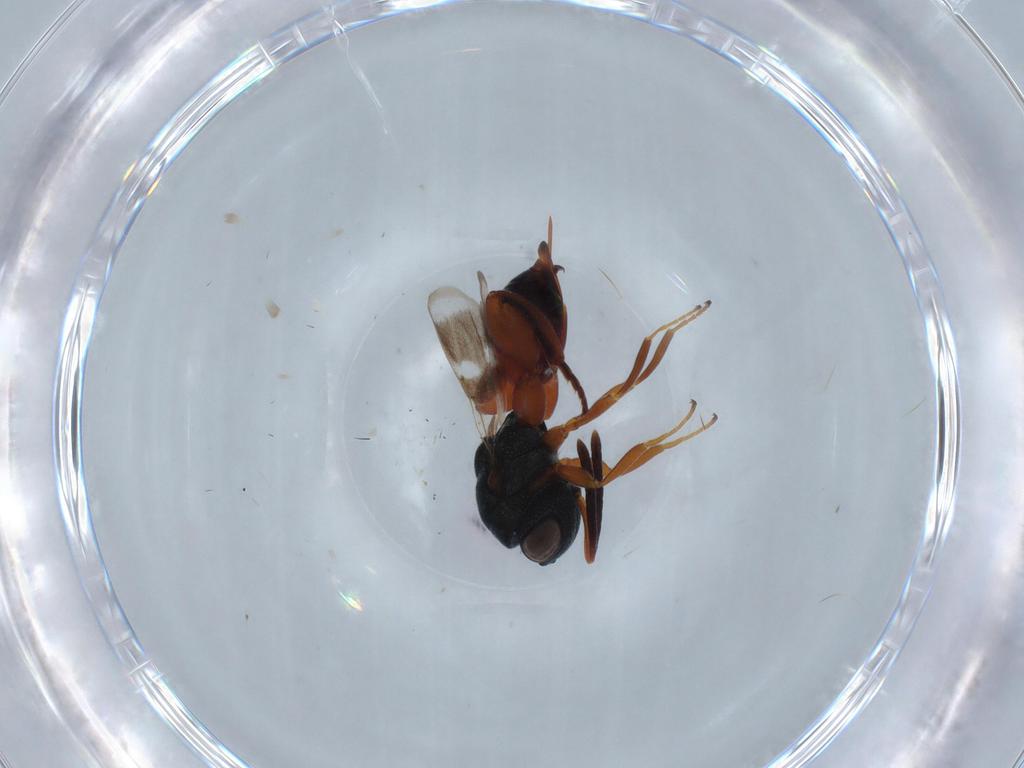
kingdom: Animalia
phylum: Arthropoda
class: Insecta
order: Hymenoptera
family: Chalcididae
